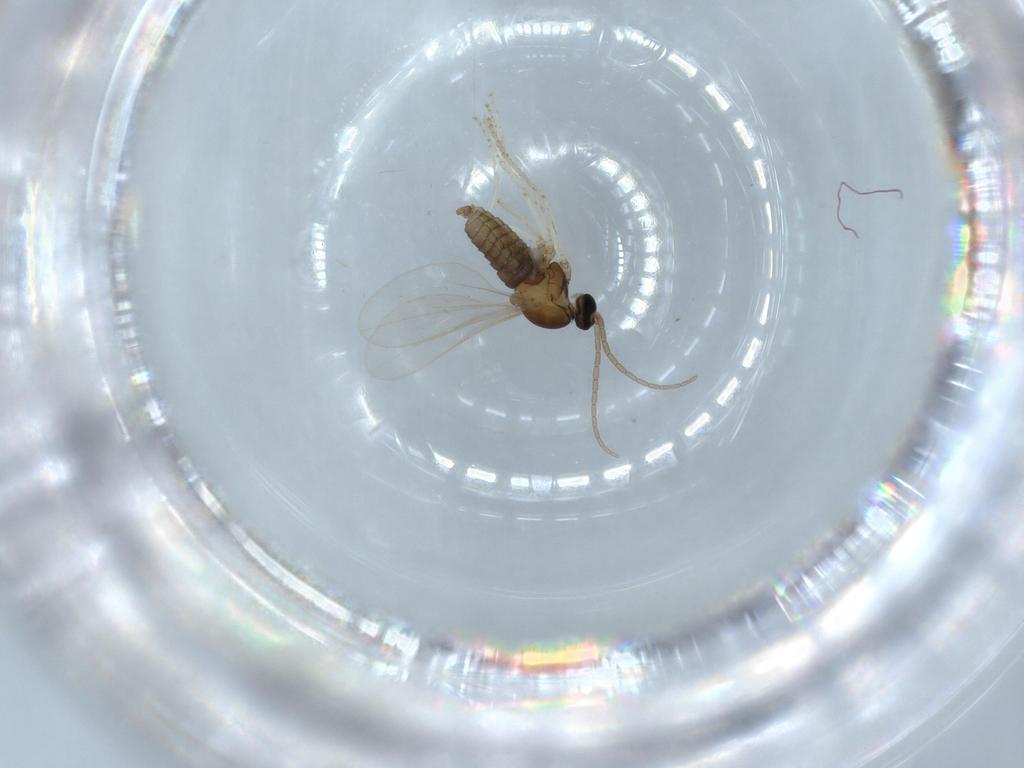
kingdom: Animalia
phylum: Arthropoda
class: Insecta
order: Diptera
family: Cecidomyiidae
